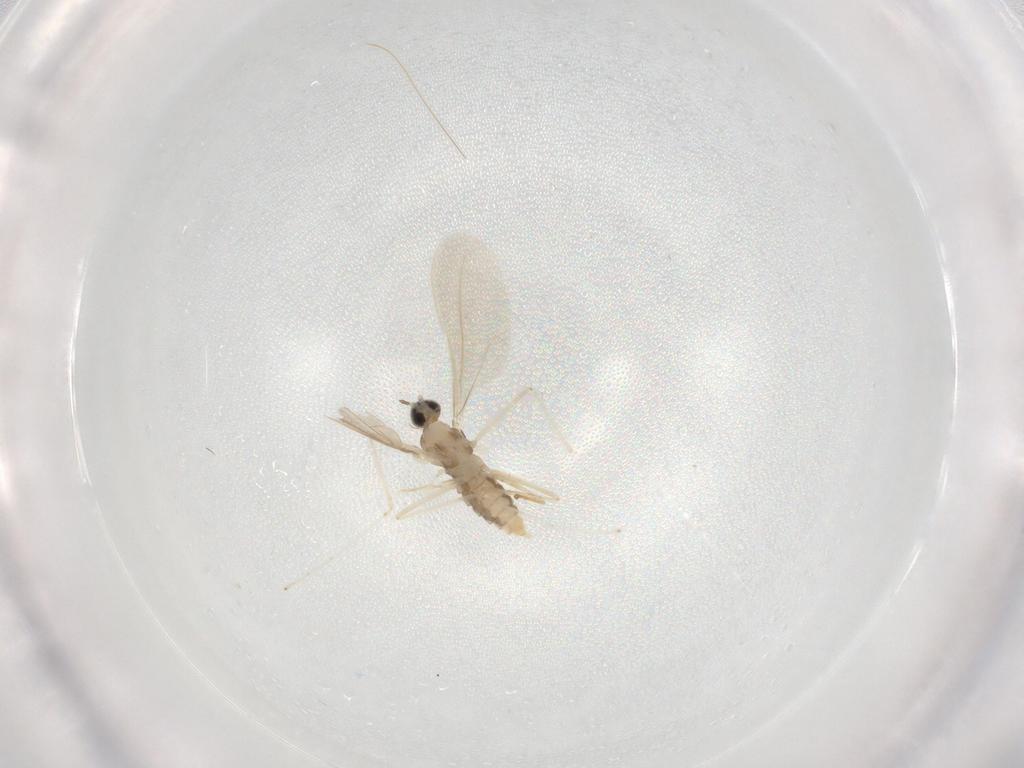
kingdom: Animalia
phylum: Arthropoda
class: Insecta
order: Diptera
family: Cecidomyiidae
